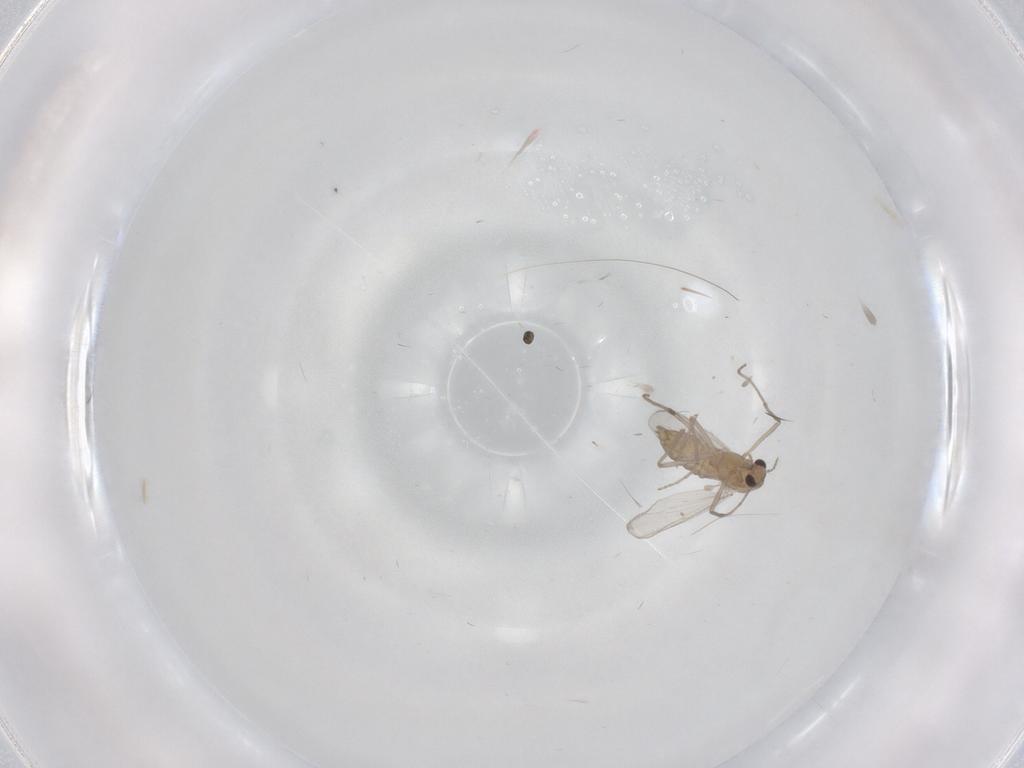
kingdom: Animalia
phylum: Arthropoda
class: Insecta
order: Diptera
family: Chironomidae
